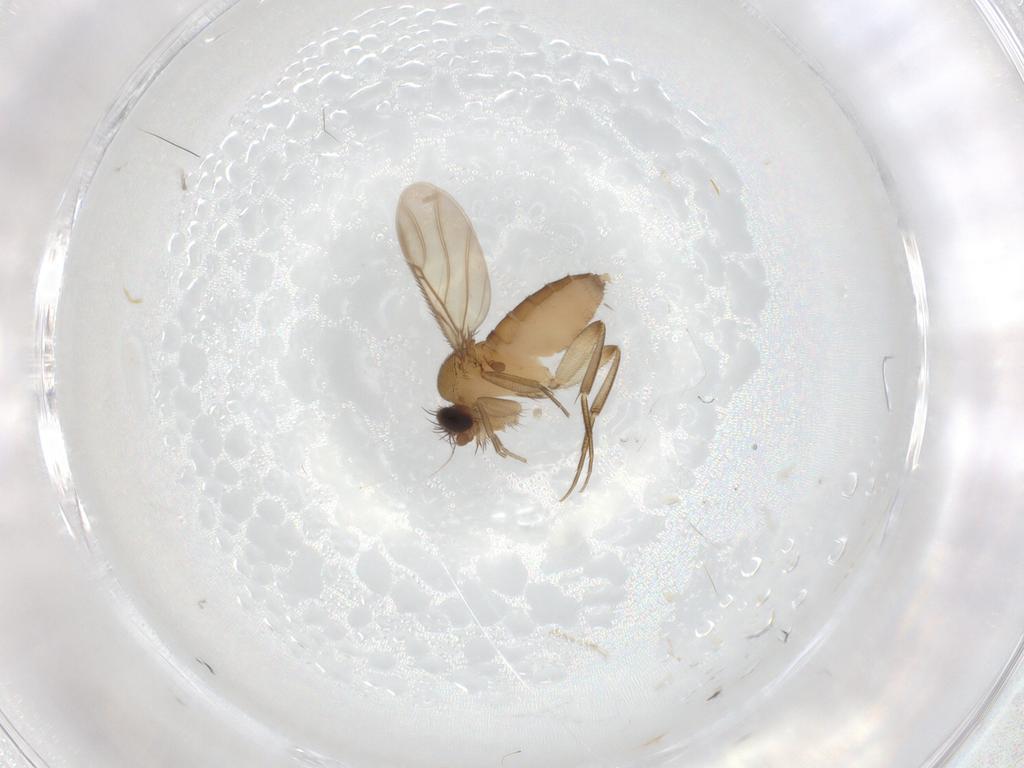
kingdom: Animalia
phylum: Arthropoda
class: Insecta
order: Diptera
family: Phoridae
